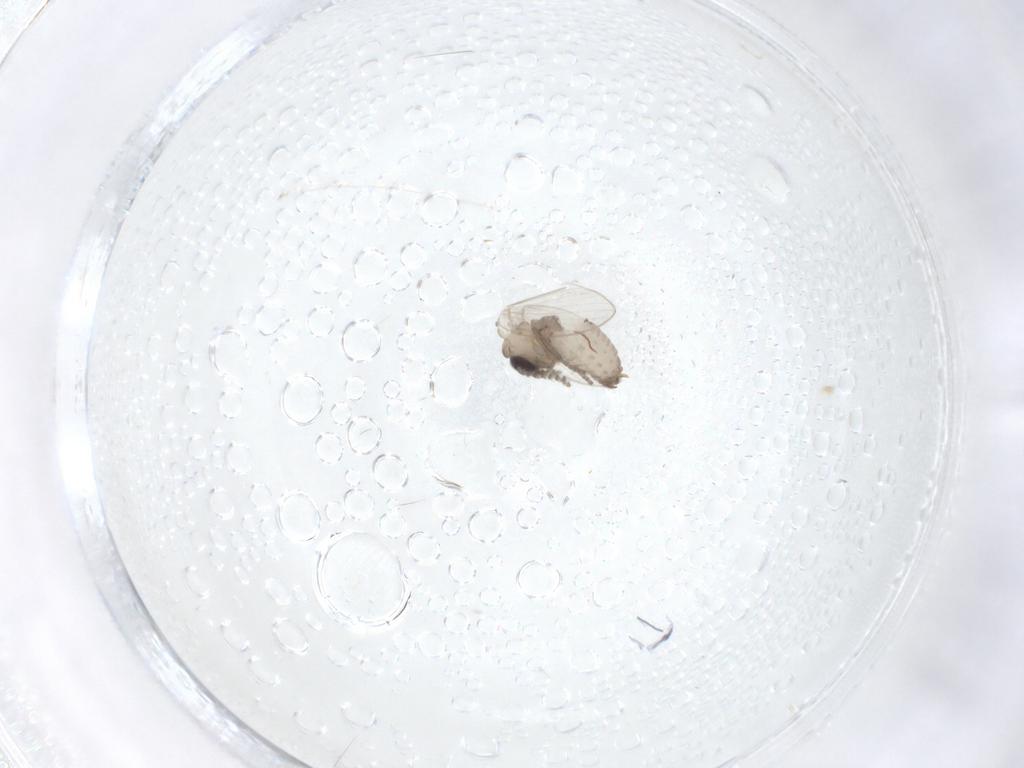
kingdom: Animalia
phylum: Arthropoda
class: Insecta
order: Diptera
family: Psychodidae
